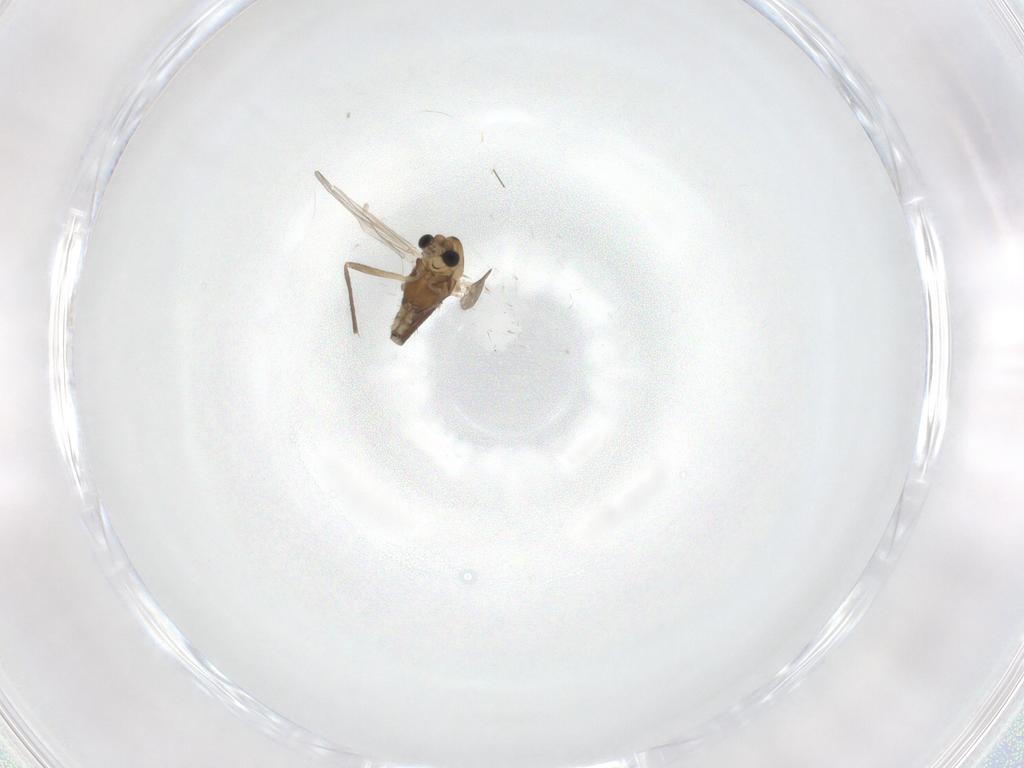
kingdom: Animalia
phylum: Arthropoda
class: Insecta
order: Diptera
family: Chironomidae
